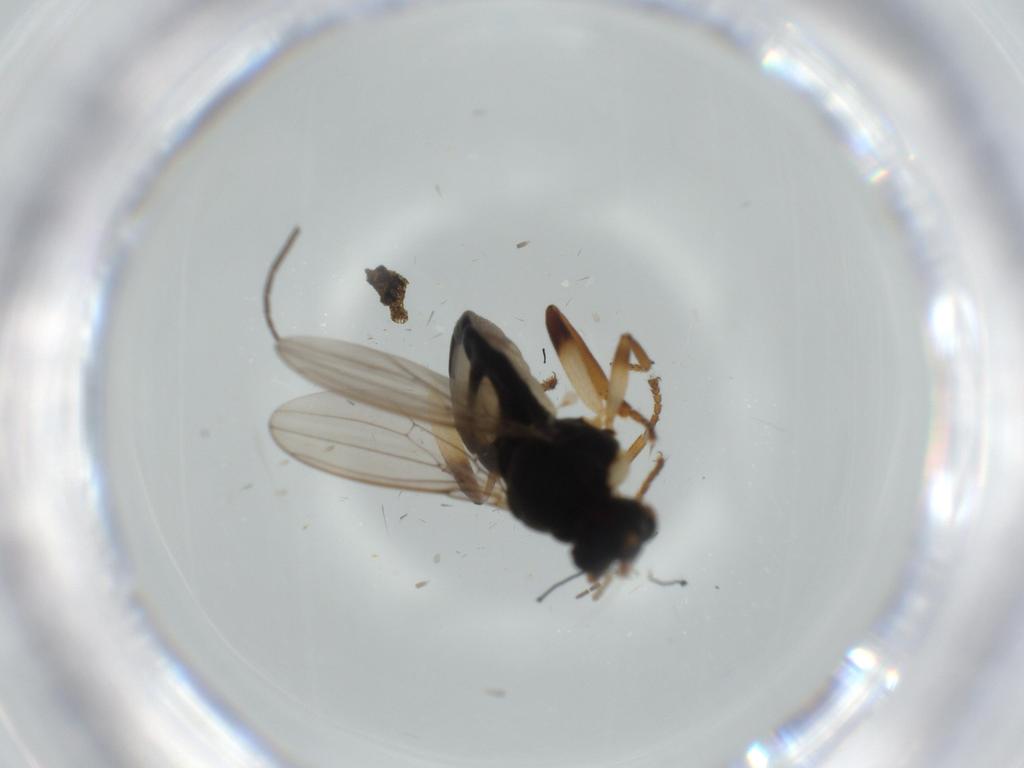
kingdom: Animalia
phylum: Arthropoda
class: Insecta
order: Diptera
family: Phoridae
